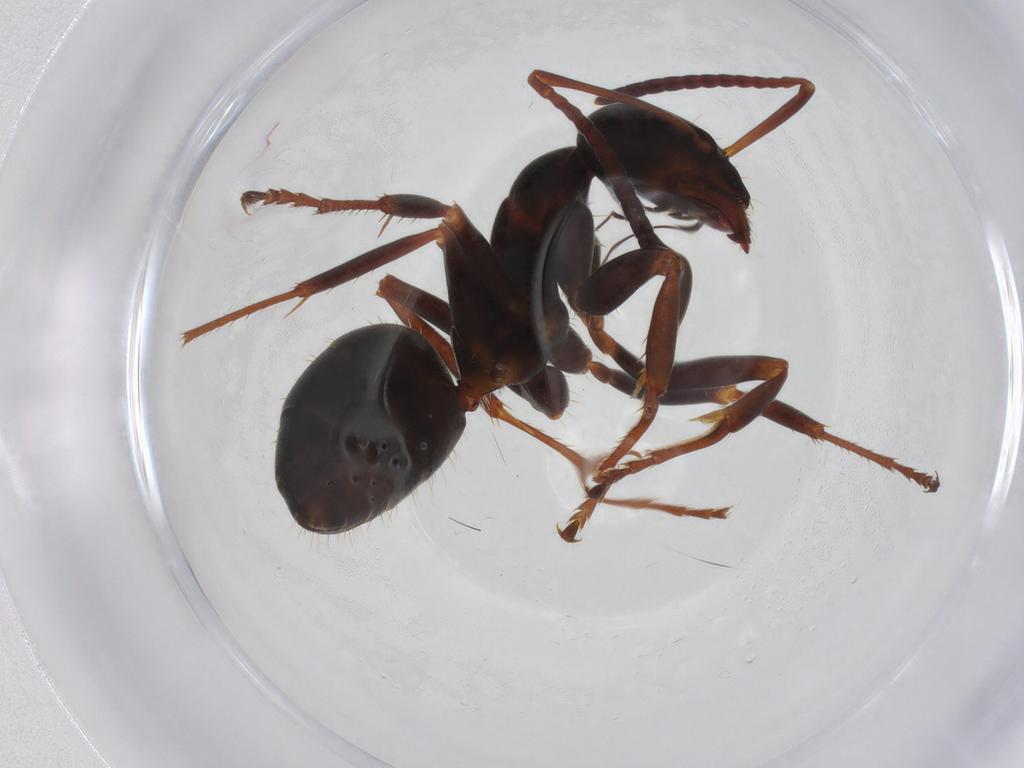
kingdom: Animalia
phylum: Arthropoda
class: Insecta
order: Hymenoptera
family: Formicidae
